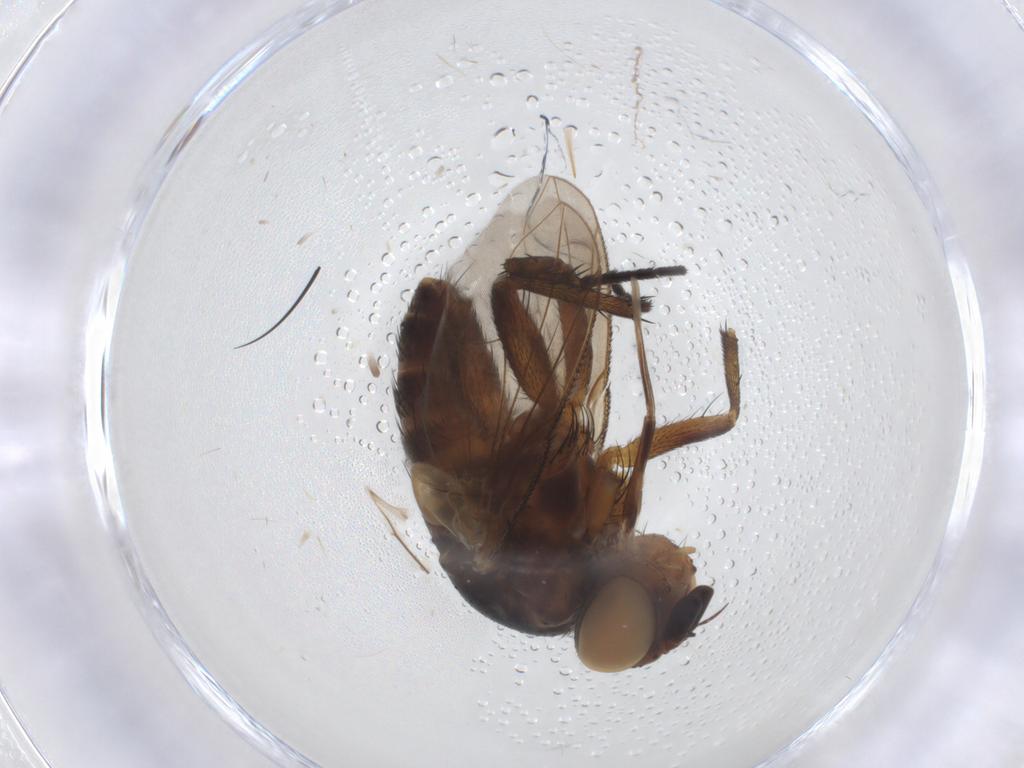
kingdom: Animalia
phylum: Arthropoda
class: Insecta
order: Diptera
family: Tachinidae
